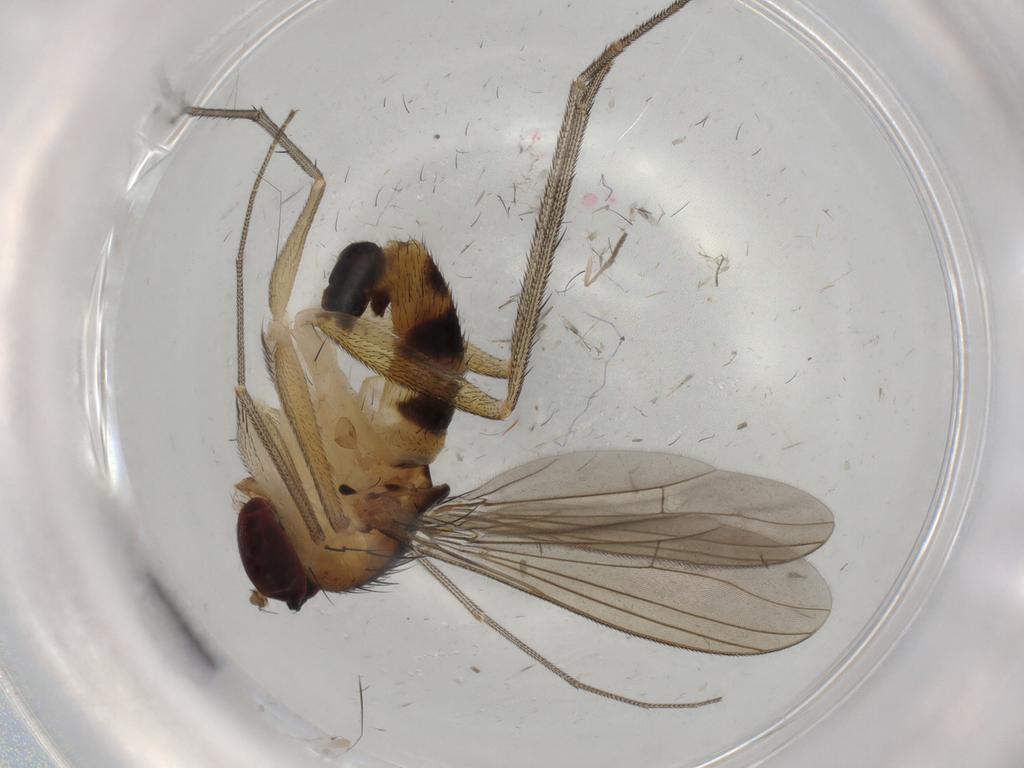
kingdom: Animalia
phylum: Arthropoda
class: Insecta
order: Diptera
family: Chironomidae
